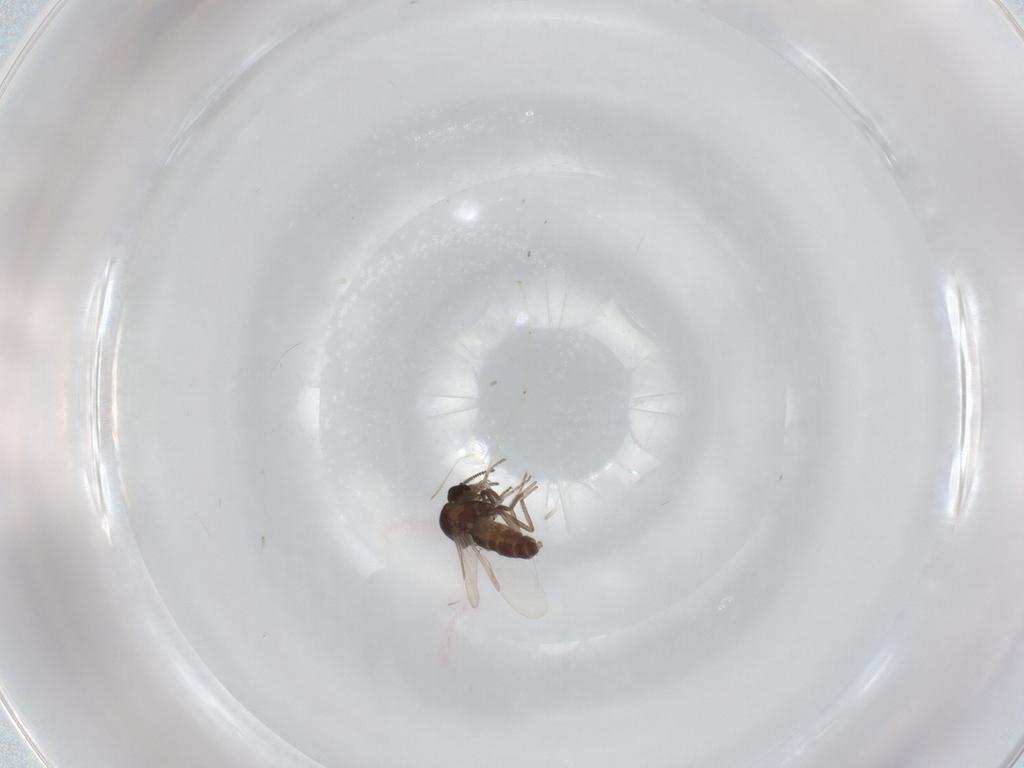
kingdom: Animalia
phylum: Arthropoda
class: Insecta
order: Diptera
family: Ceratopogonidae
